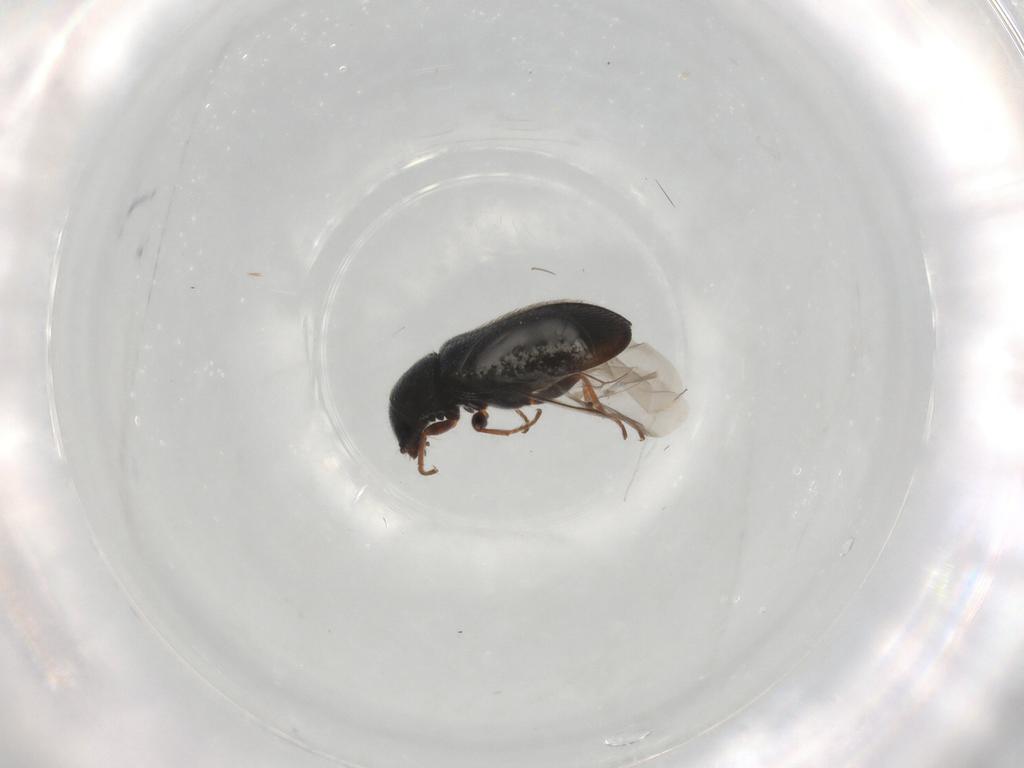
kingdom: Animalia
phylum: Arthropoda
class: Insecta
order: Coleoptera
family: Melyridae
